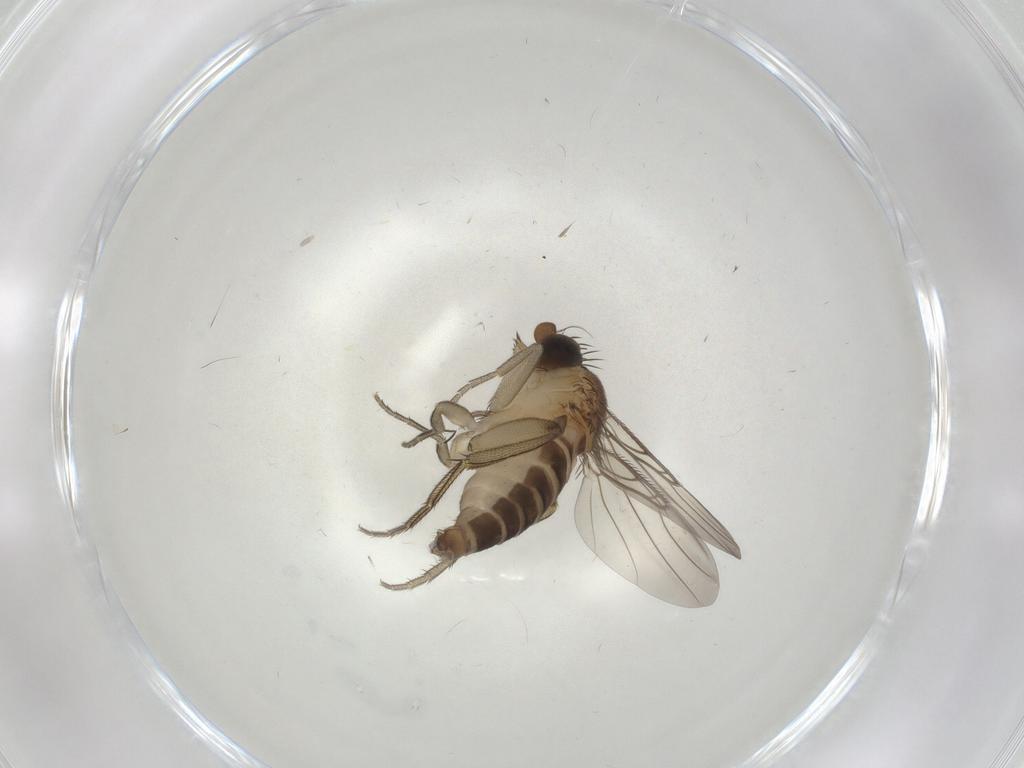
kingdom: Animalia
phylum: Arthropoda
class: Insecta
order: Diptera
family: Phoridae
